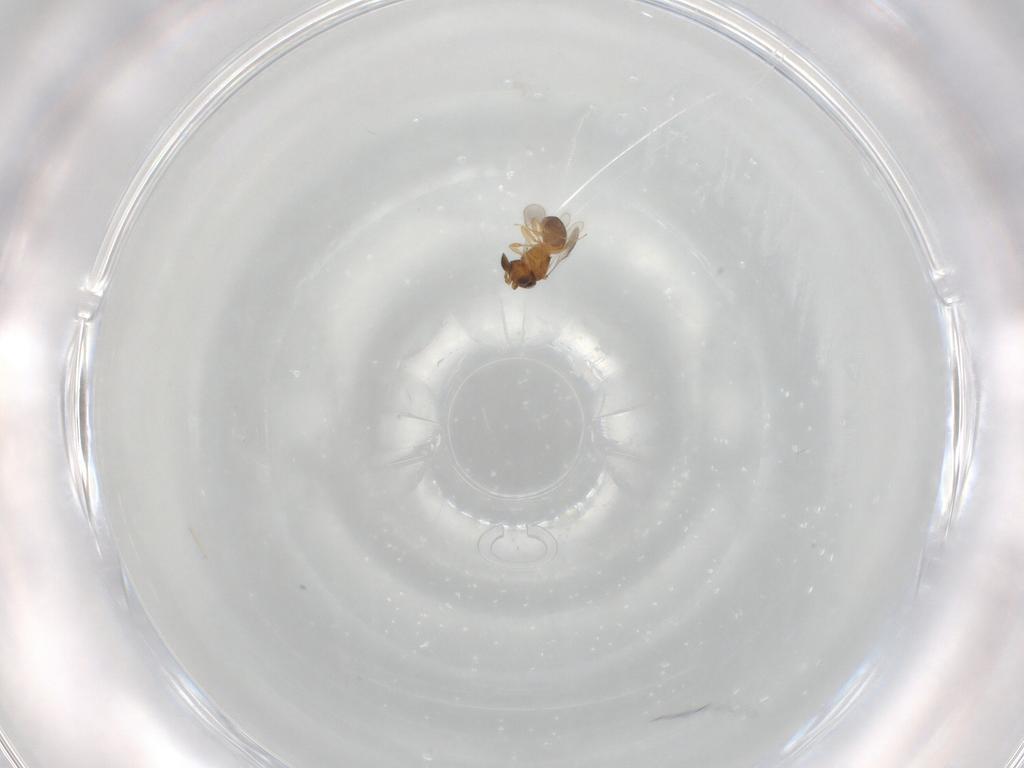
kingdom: Animalia
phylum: Arthropoda
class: Insecta
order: Hymenoptera
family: Scelionidae
